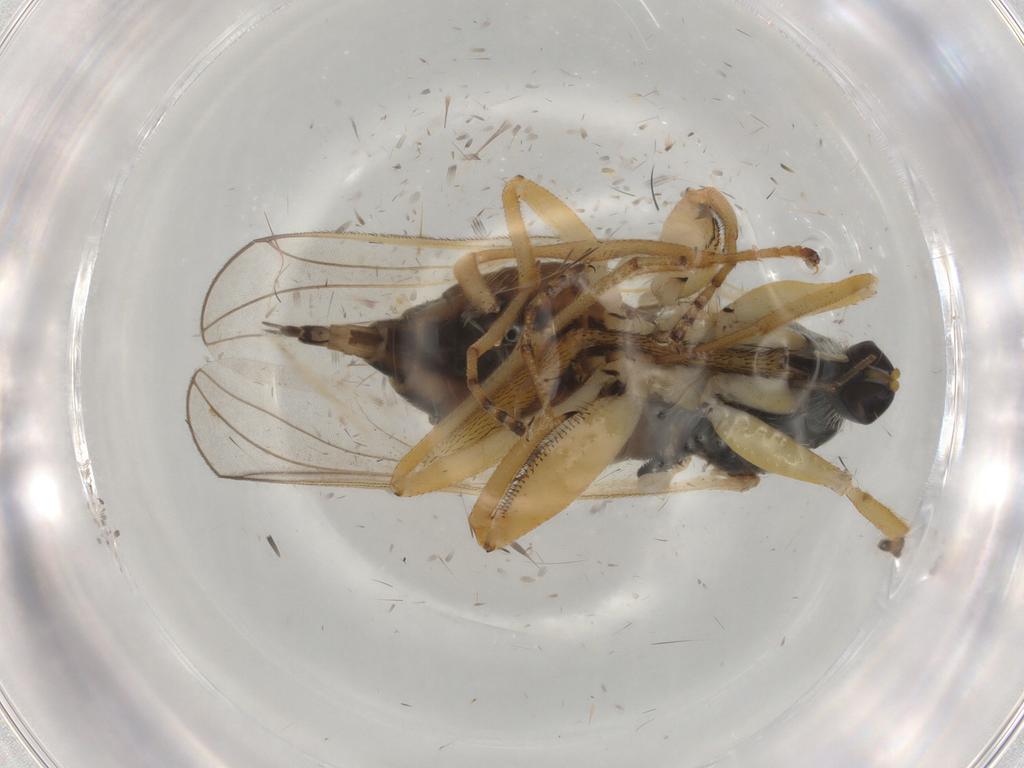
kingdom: Animalia
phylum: Arthropoda
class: Insecta
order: Diptera
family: Hybotidae
